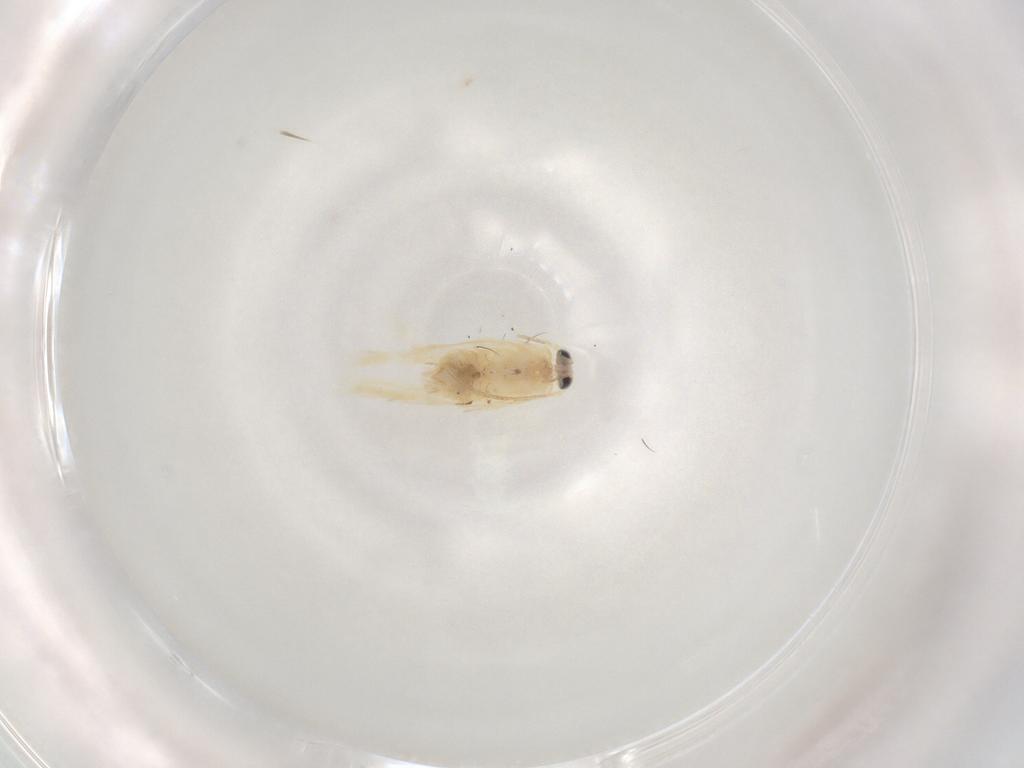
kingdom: Animalia
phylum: Arthropoda
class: Insecta
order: Lepidoptera
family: Nepticulidae
